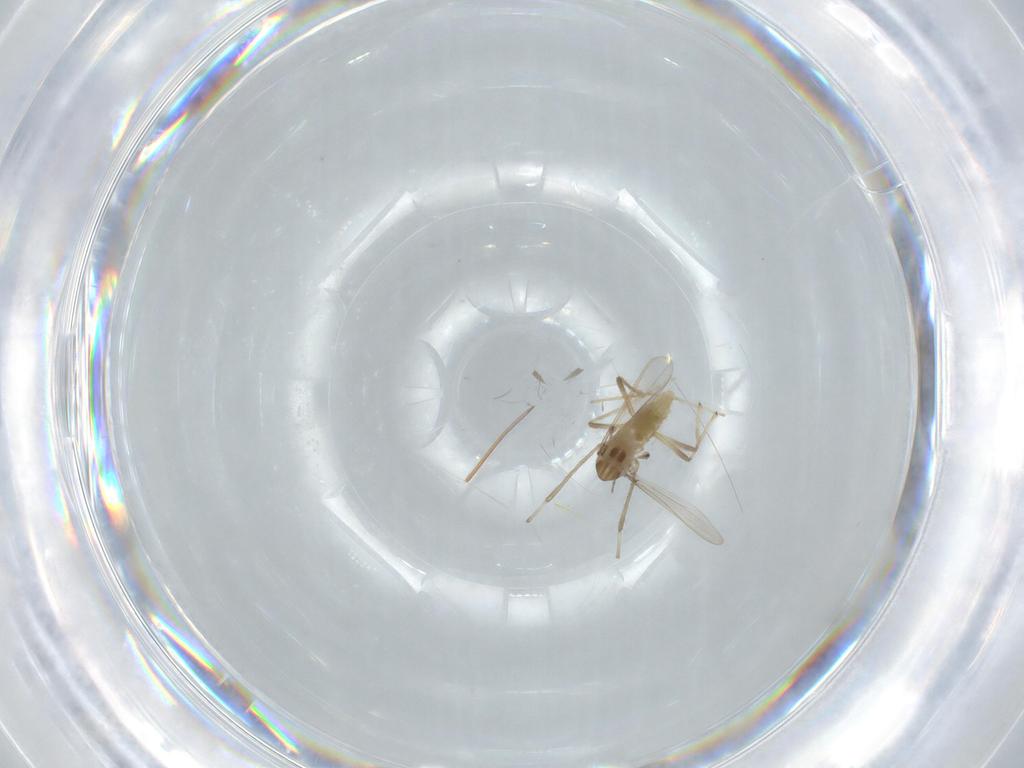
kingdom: Animalia
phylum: Arthropoda
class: Insecta
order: Diptera
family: Chironomidae
